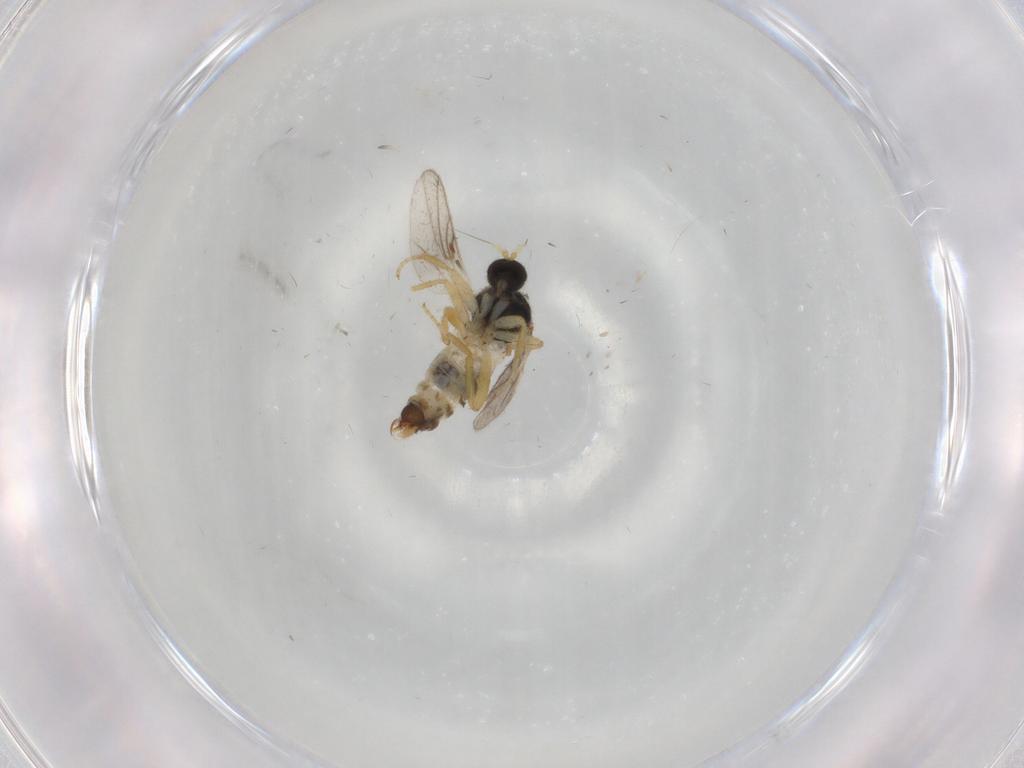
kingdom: Animalia
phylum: Arthropoda
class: Insecta
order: Diptera
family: Hybotidae
